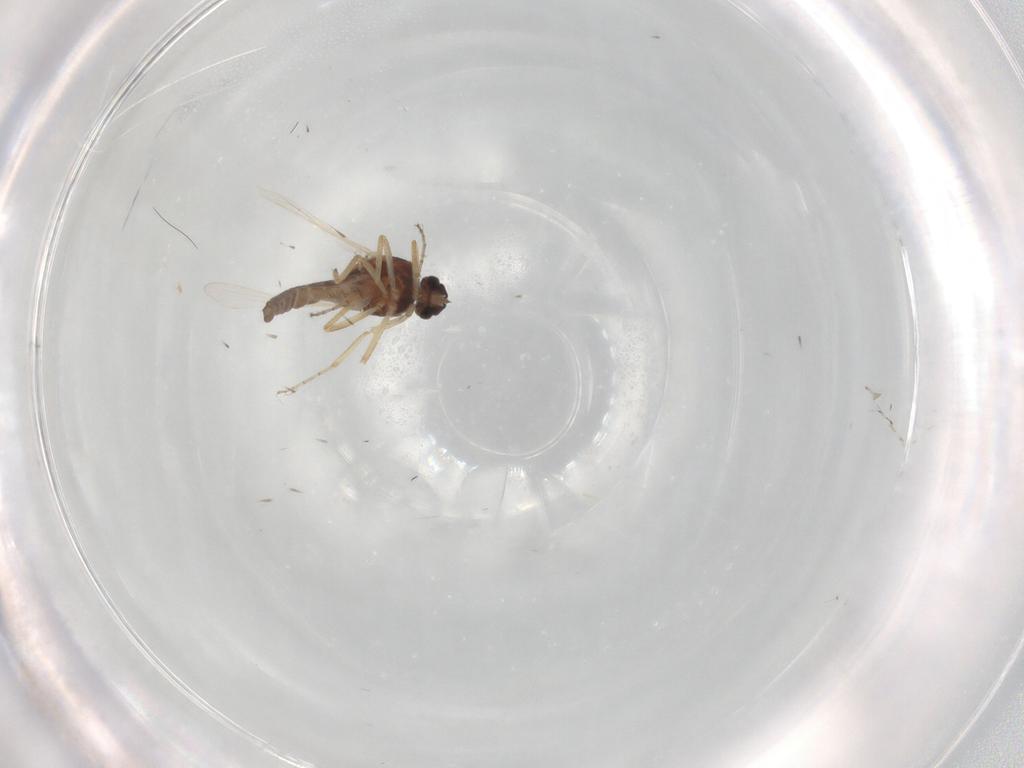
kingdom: Animalia
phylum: Arthropoda
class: Insecta
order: Diptera
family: Ceratopogonidae
